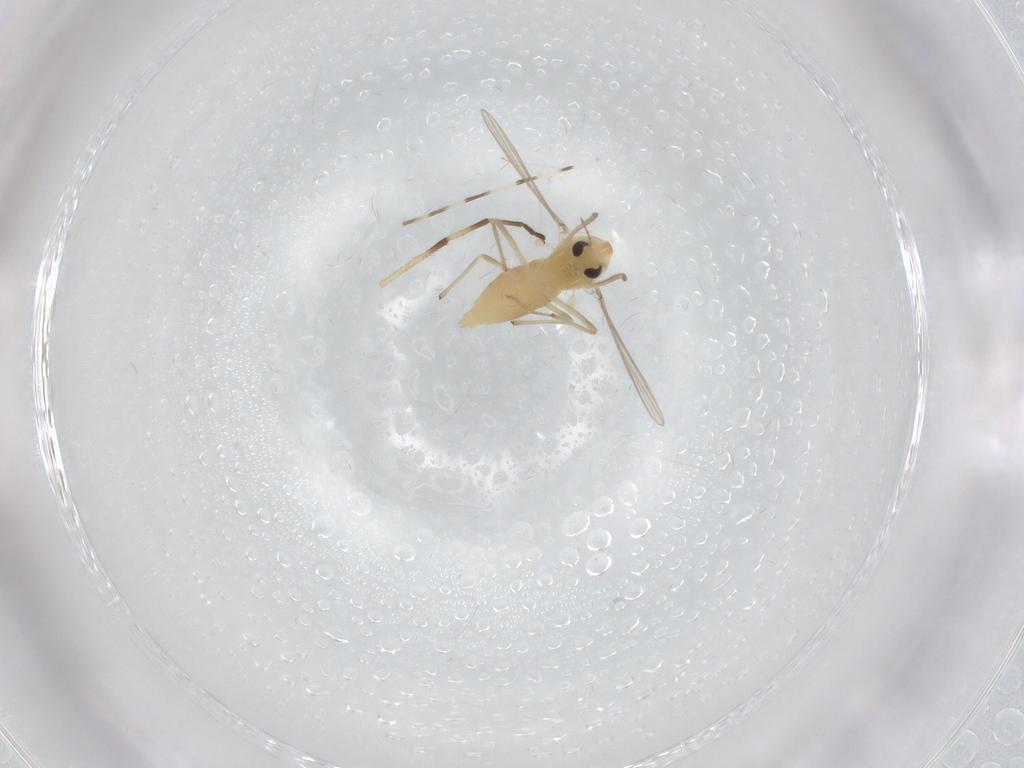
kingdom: Animalia
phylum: Arthropoda
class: Insecta
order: Diptera
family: Chironomidae
